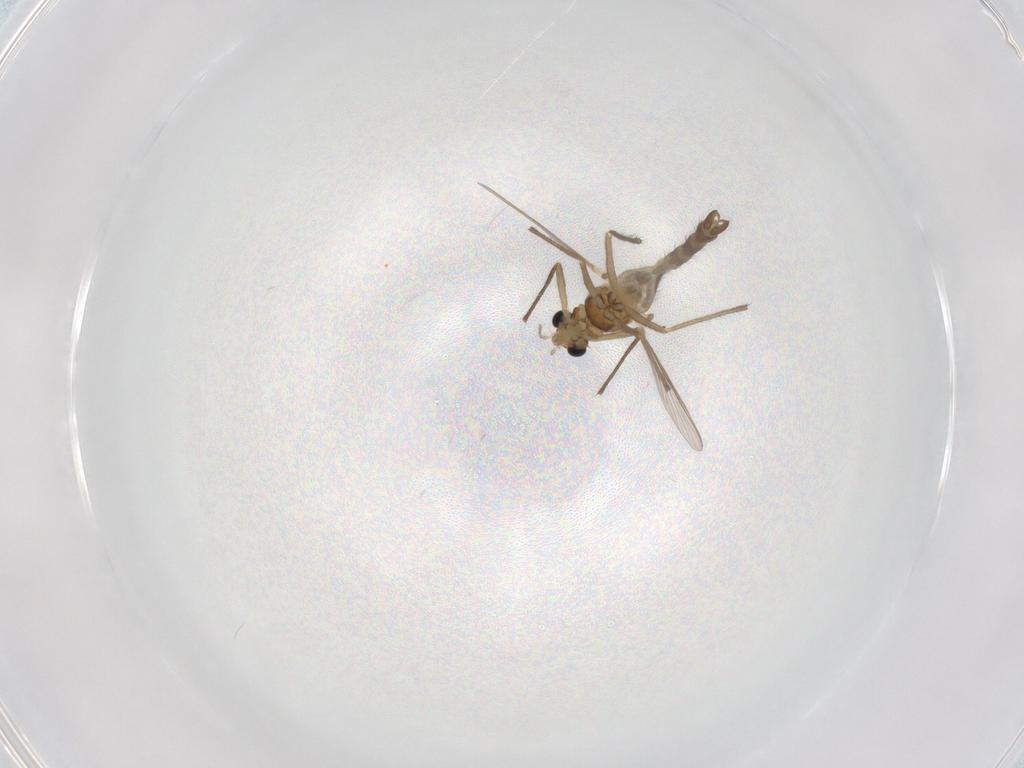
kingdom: Animalia
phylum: Arthropoda
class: Insecta
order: Diptera
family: Chironomidae
